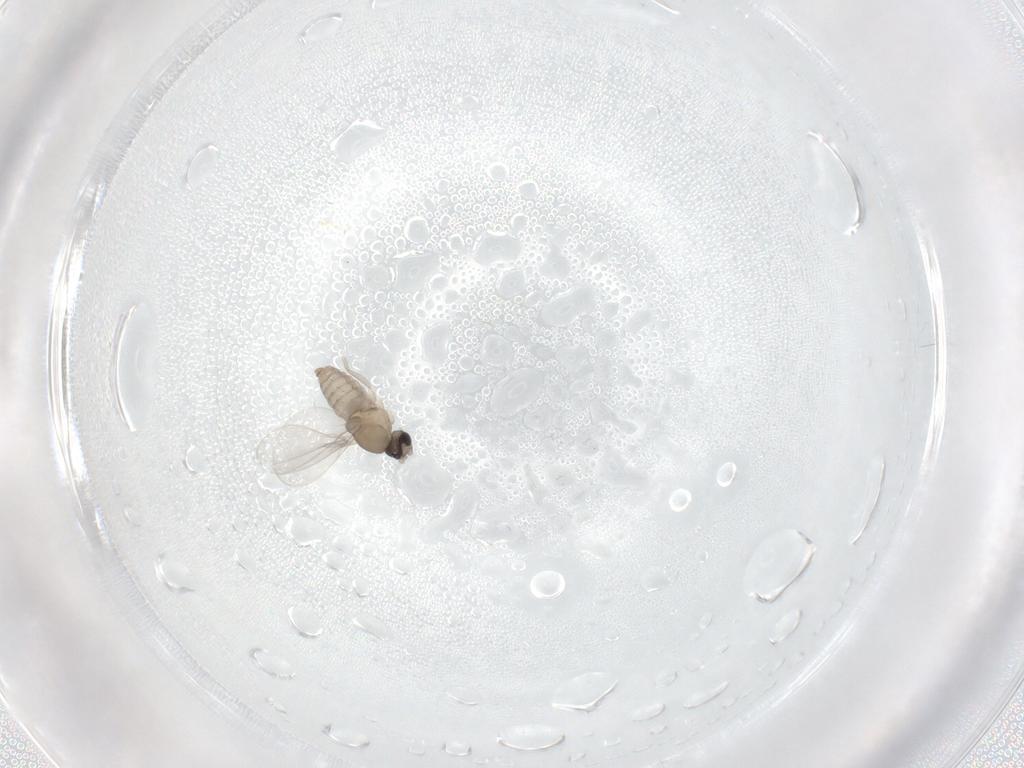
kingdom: Animalia
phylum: Arthropoda
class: Insecta
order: Diptera
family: Cecidomyiidae
